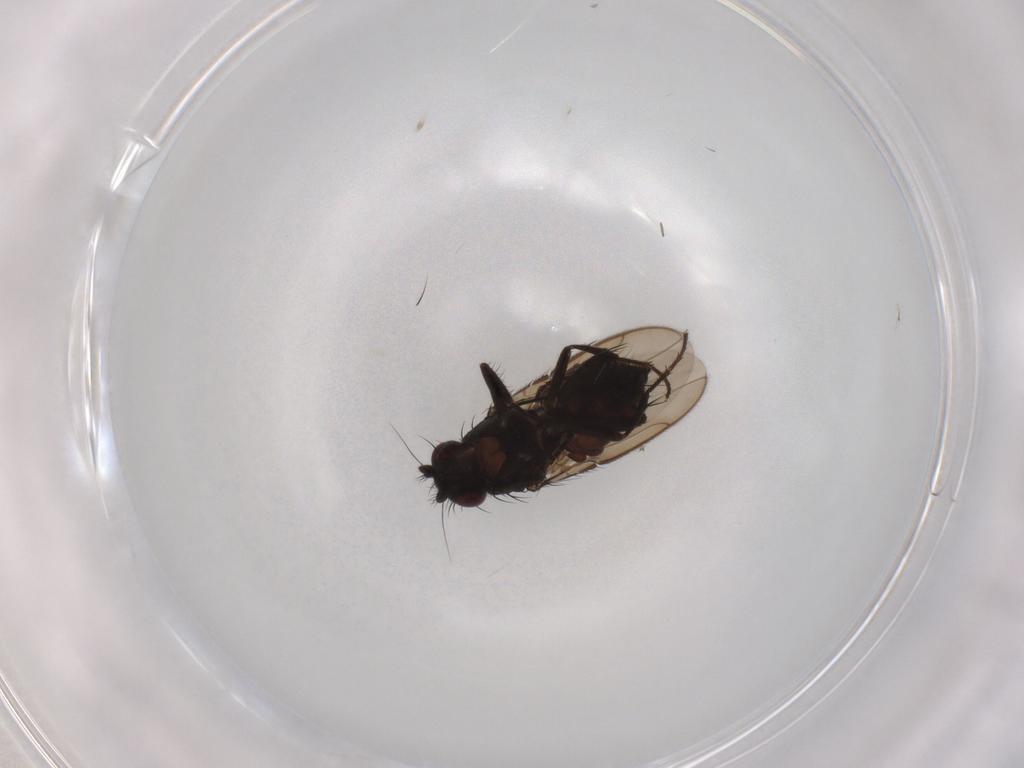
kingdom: Animalia
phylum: Arthropoda
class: Insecta
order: Diptera
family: Sphaeroceridae
